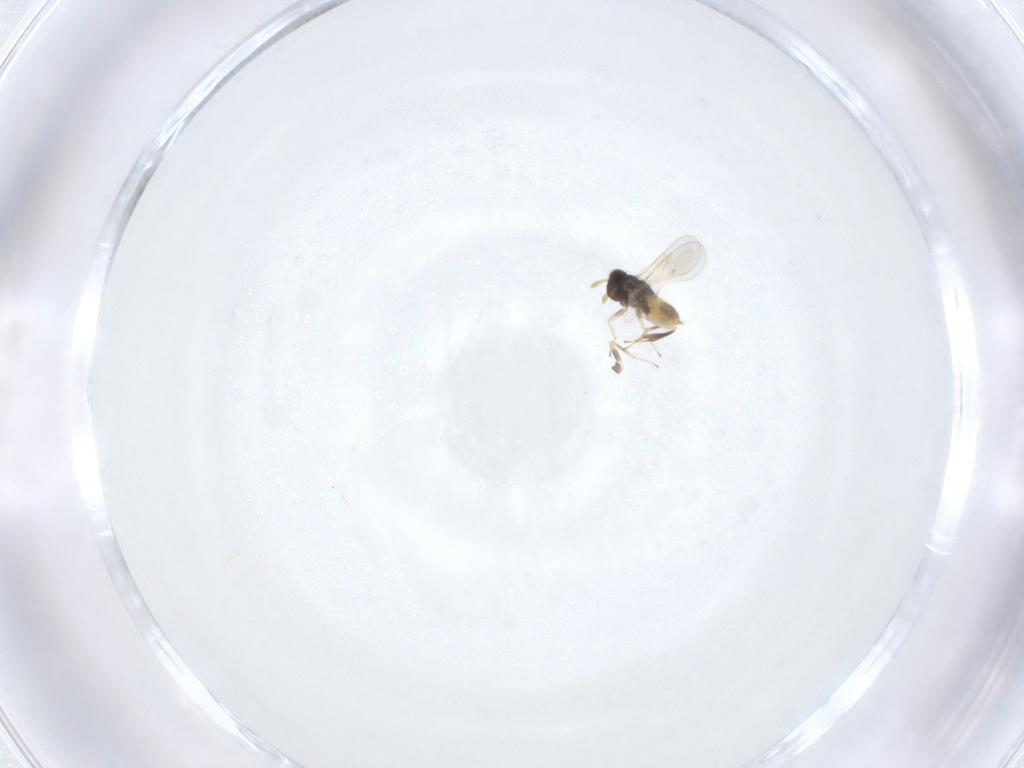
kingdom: Animalia
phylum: Arthropoda
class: Insecta
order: Hymenoptera
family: Aphelinidae
